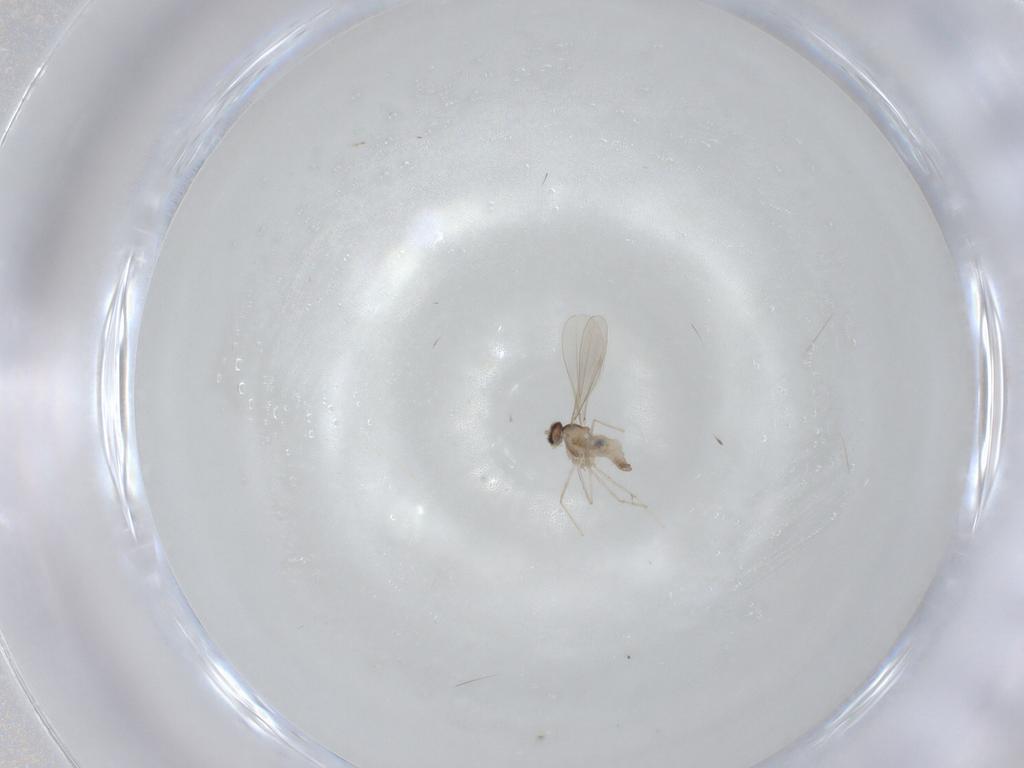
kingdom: Animalia
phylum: Arthropoda
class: Insecta
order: Diptera
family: Cecidomyiidae
